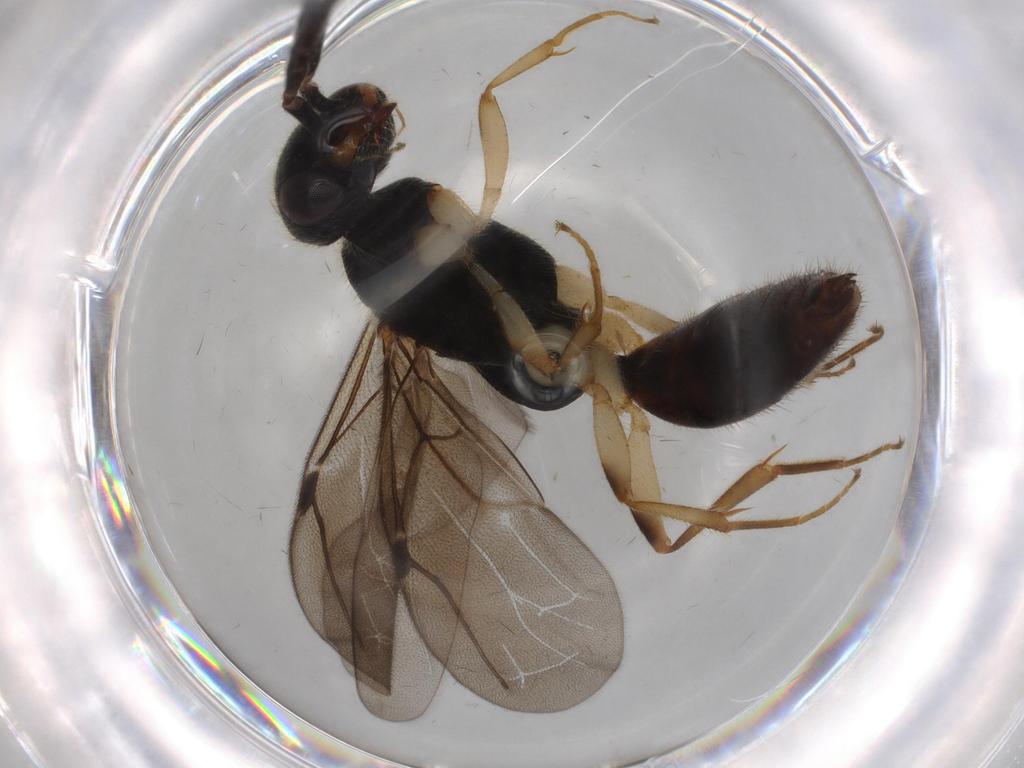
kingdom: Animalia
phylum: Arthropoda
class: Insecta
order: Hymenoptera
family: Bethylidae
